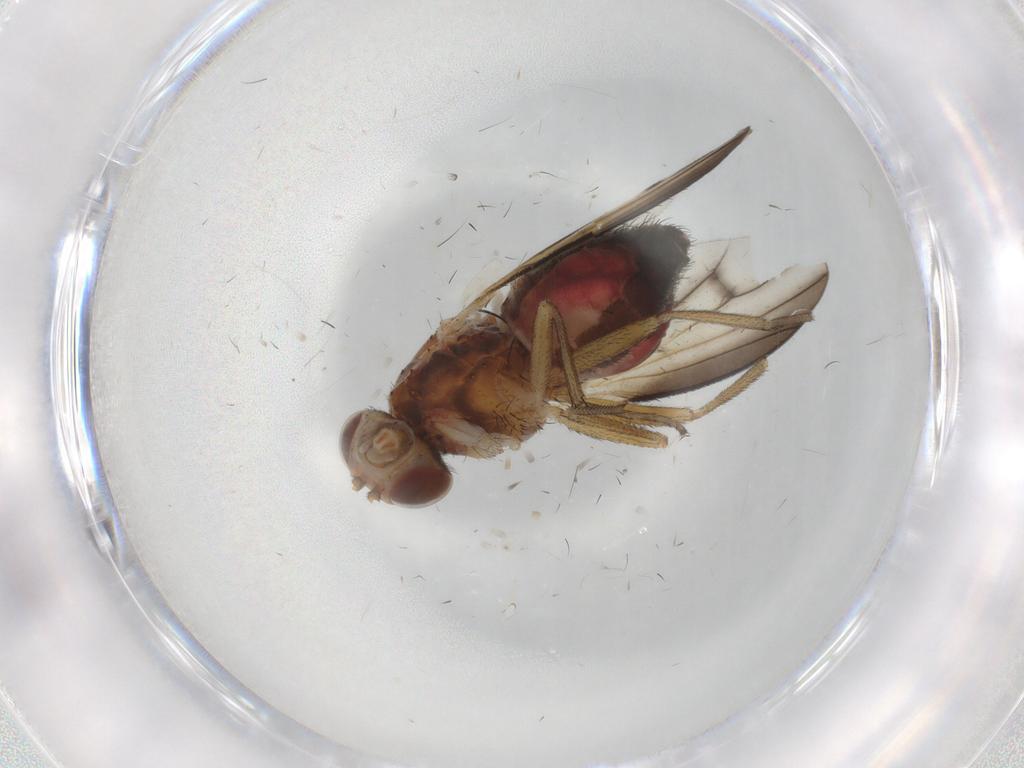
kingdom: Animalia
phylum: Arthropoda
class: Insecta
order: Diptera
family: Heleomyzidae
